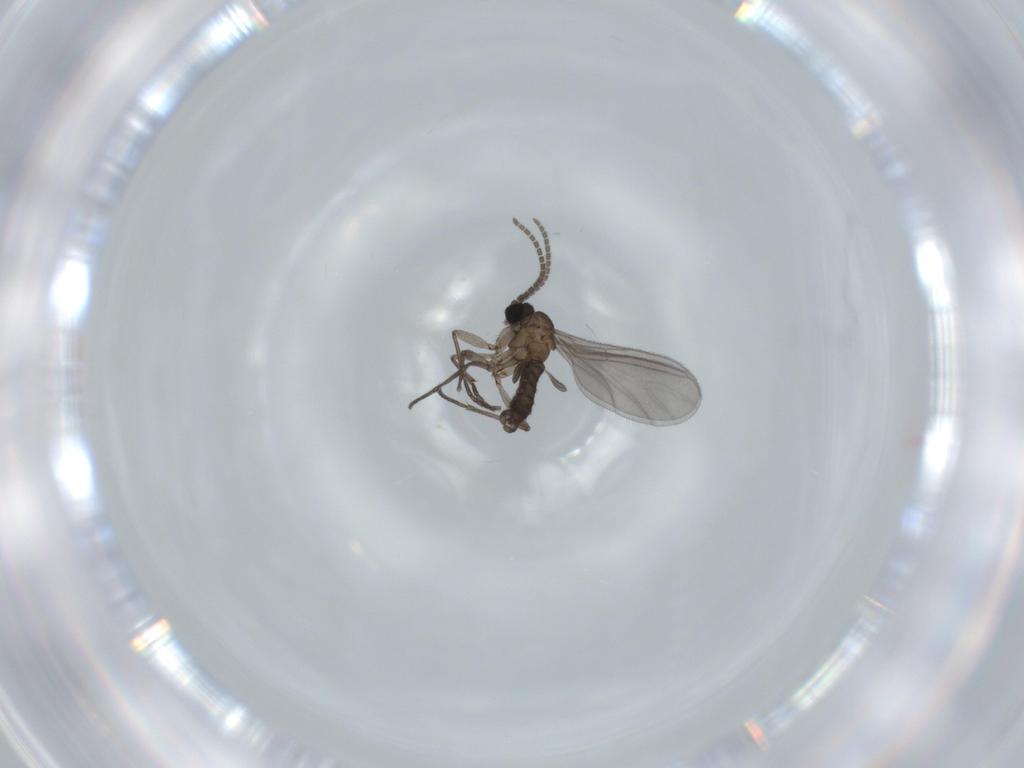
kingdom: Animalia
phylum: Arthropoda
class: Insecta
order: Diptera
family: Sciaridae
